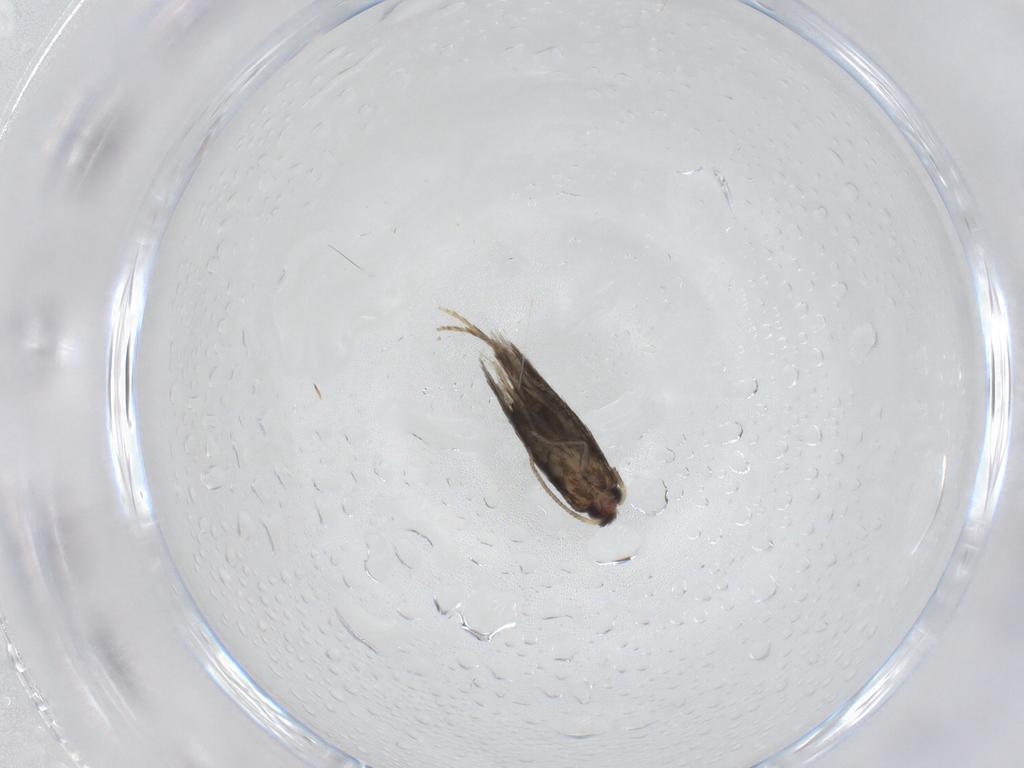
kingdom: Animalia
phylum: Arthropoda
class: Insecta
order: Lepidoptera
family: Nepticulidae
